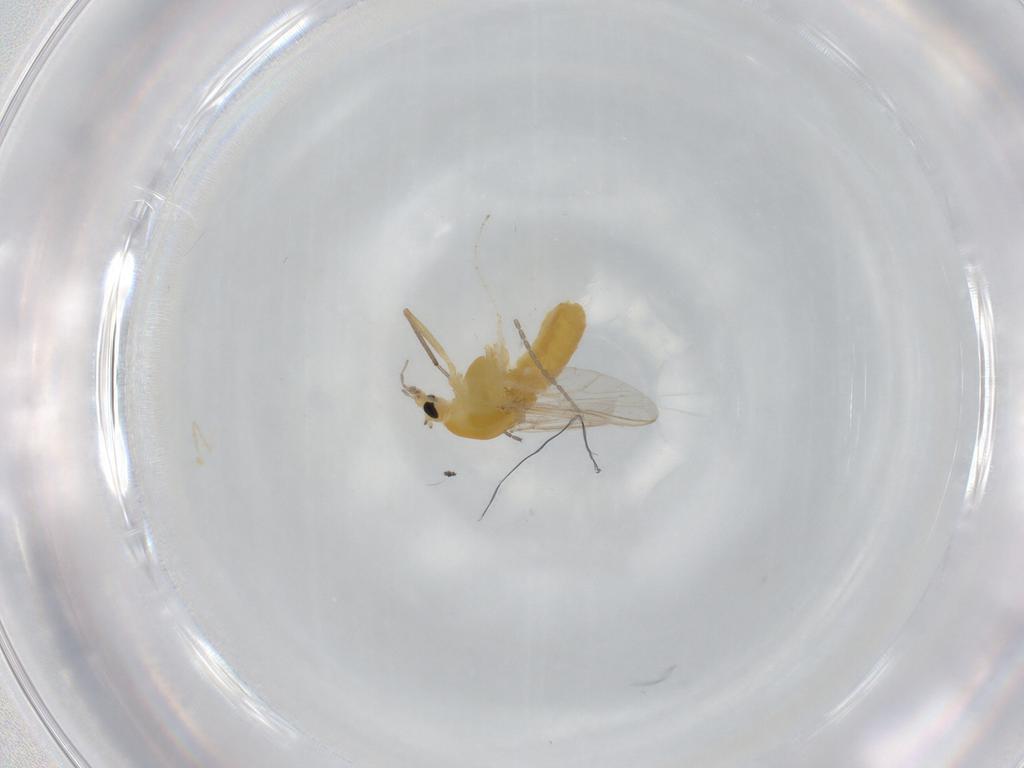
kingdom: Animalia
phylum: Arthropoda
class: Insecta
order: Diptera
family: Chironomidae
